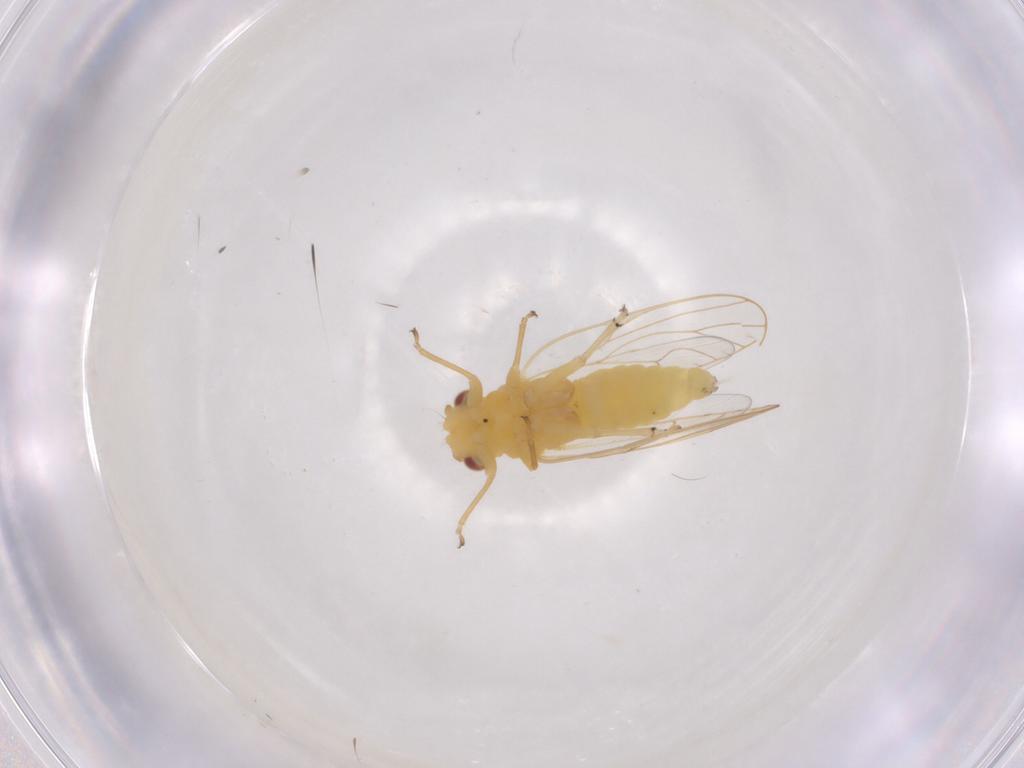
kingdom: Animalia
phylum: Arthropoda
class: Insecta
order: Hemiptera
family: Psyllidae
